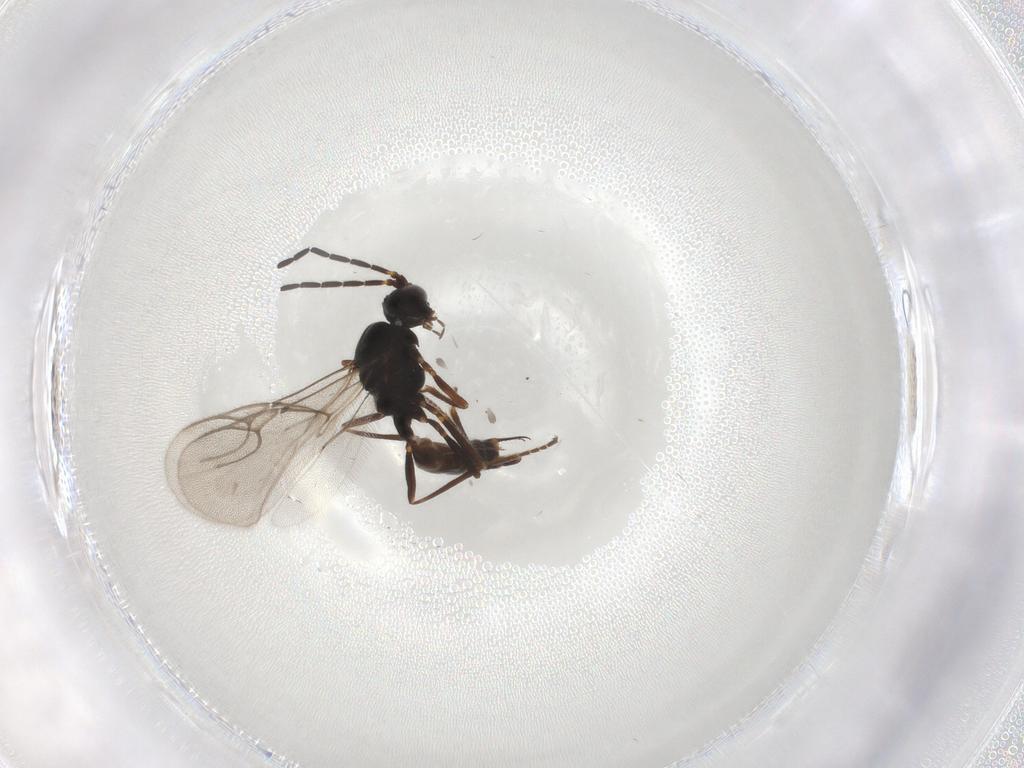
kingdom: Animalia
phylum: Arthropoda
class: Insecta
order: Hymenoptera
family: Braconidae
